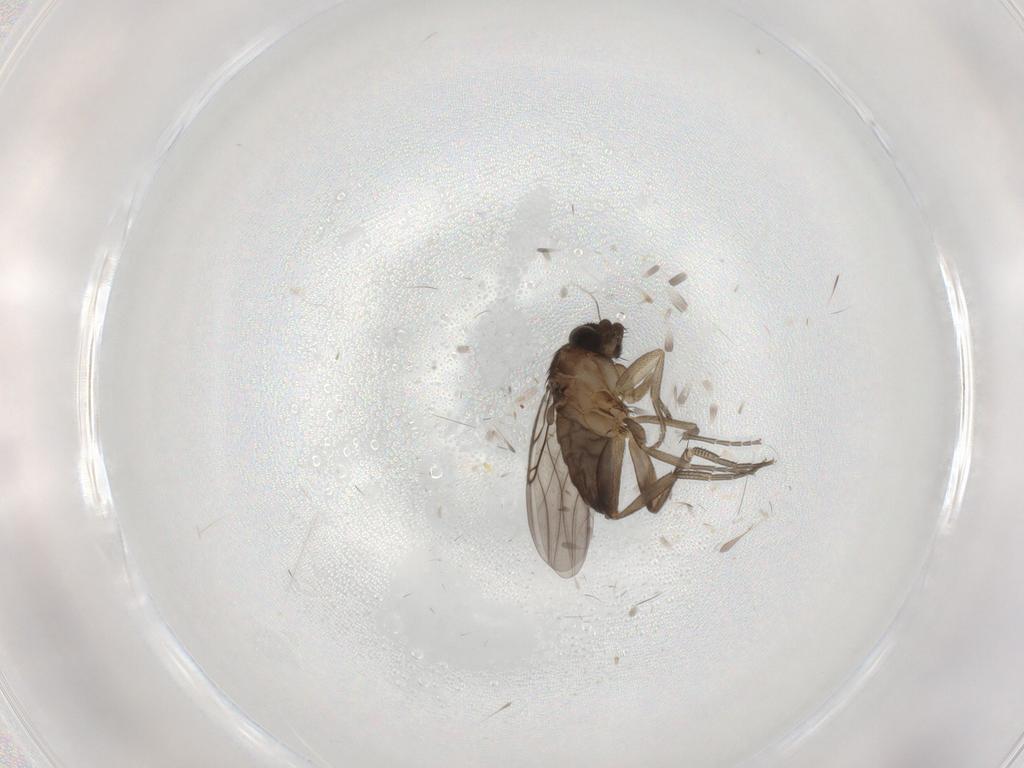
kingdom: Animalia
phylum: Arthropoda
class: Insecta
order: Diptera
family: Phoridae
